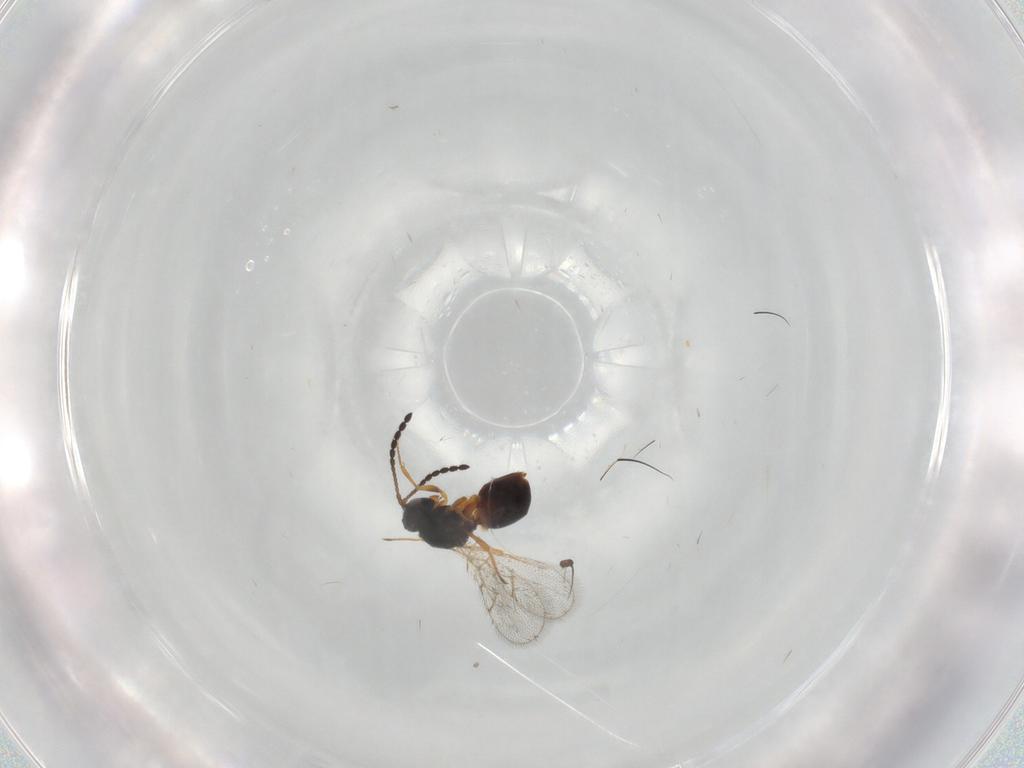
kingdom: Animalia
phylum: Arthropoda
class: Insecta
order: Hymenoptera
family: Figitidae
